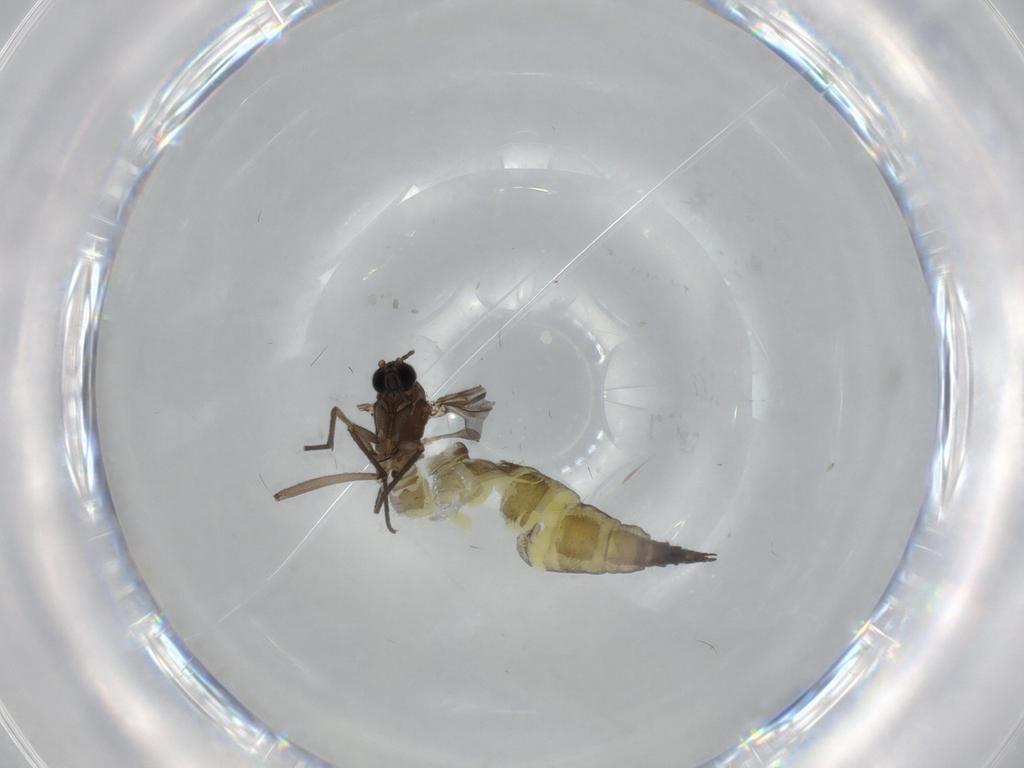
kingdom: Animalia
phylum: Arthropoda
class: Insecta
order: Diptera
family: Sciaridae
